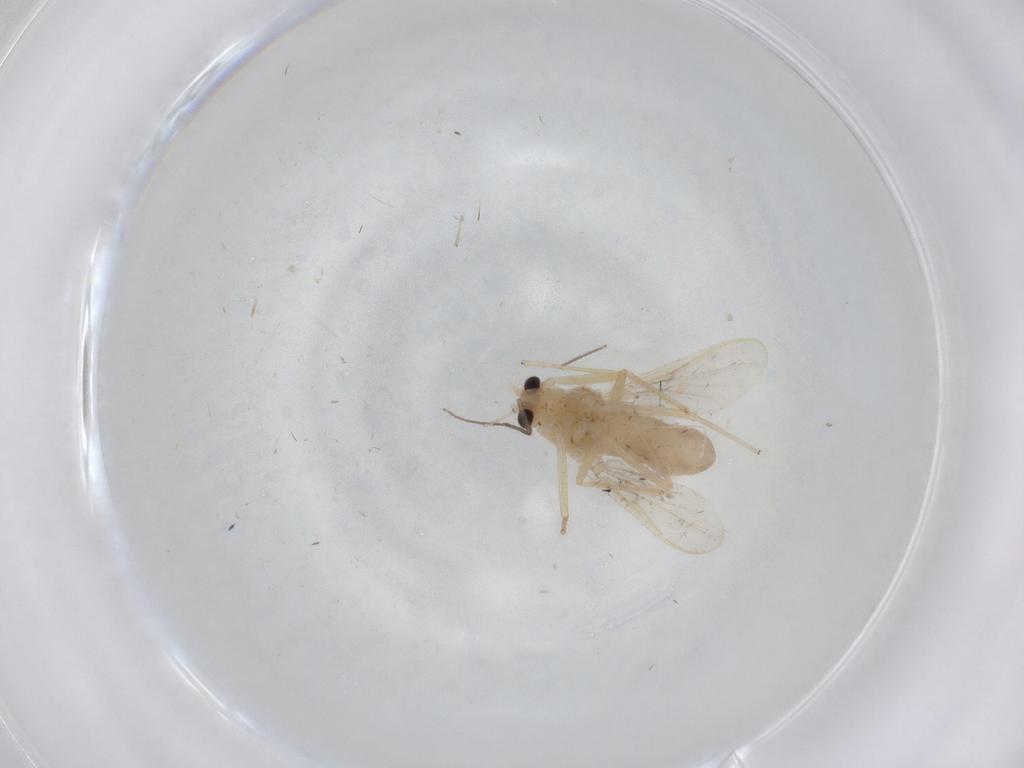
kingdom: Animalia
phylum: Arthropoda
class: Insecta
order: Diptera
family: Chironomidae
